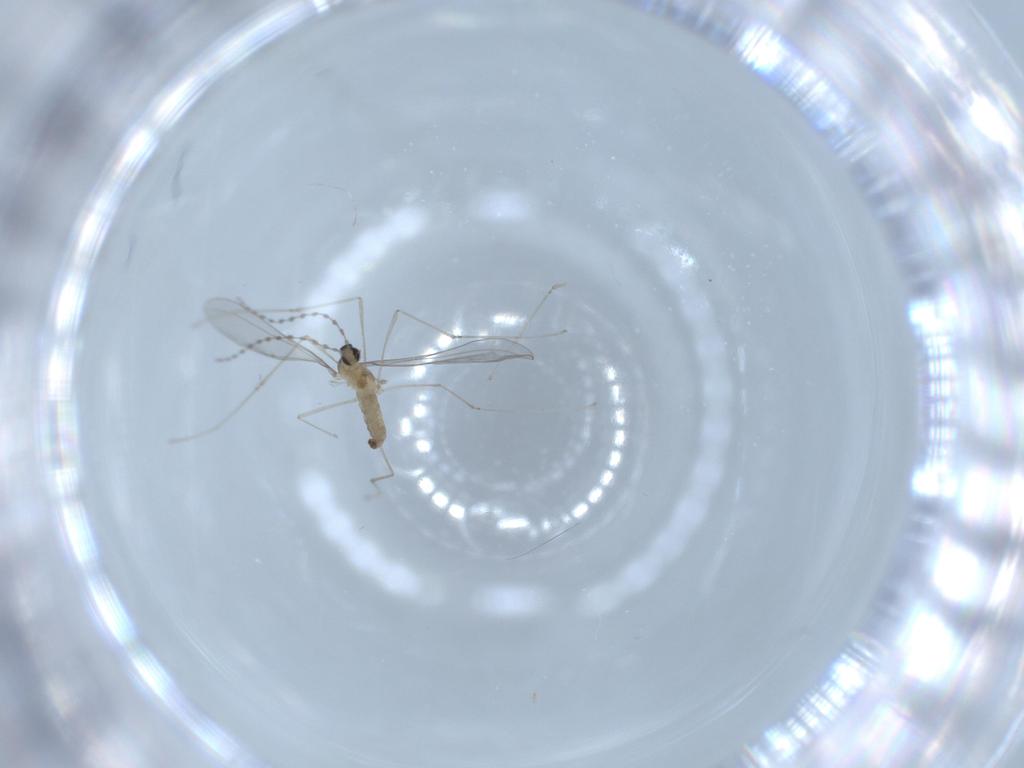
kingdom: Animalia
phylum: Arthropoda
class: Insecta
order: Diptera
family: Cecidomyiidae
